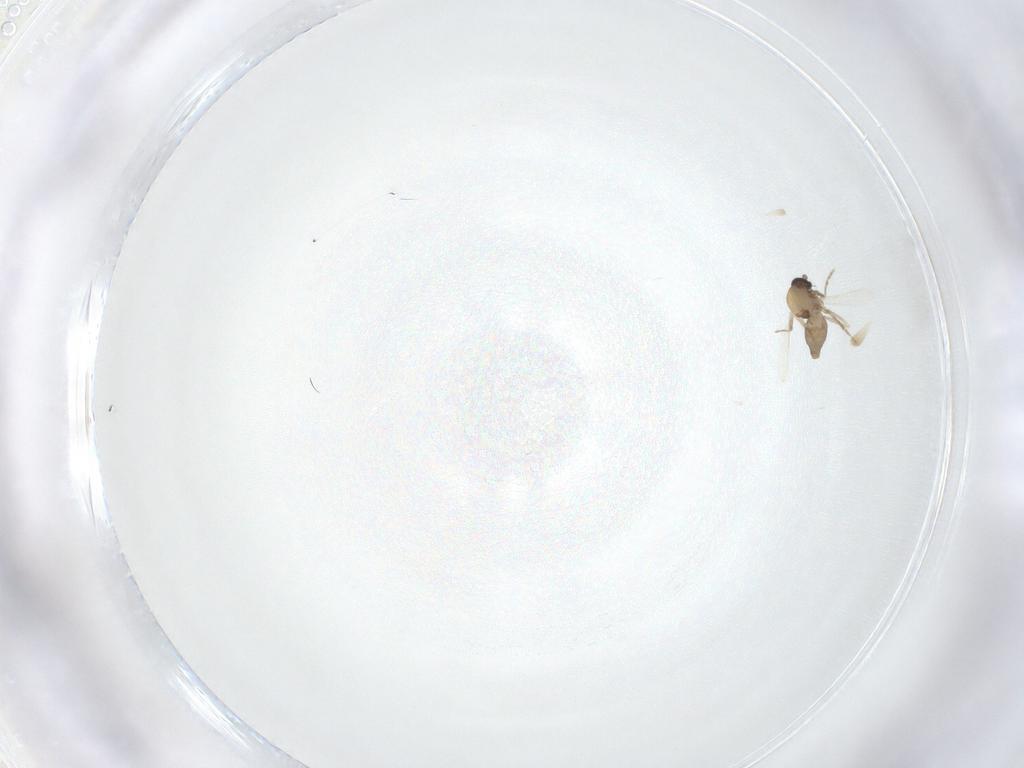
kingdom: Animalia
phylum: Arthropoda
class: Insecta
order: Diptera
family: Ceratopogonidae
